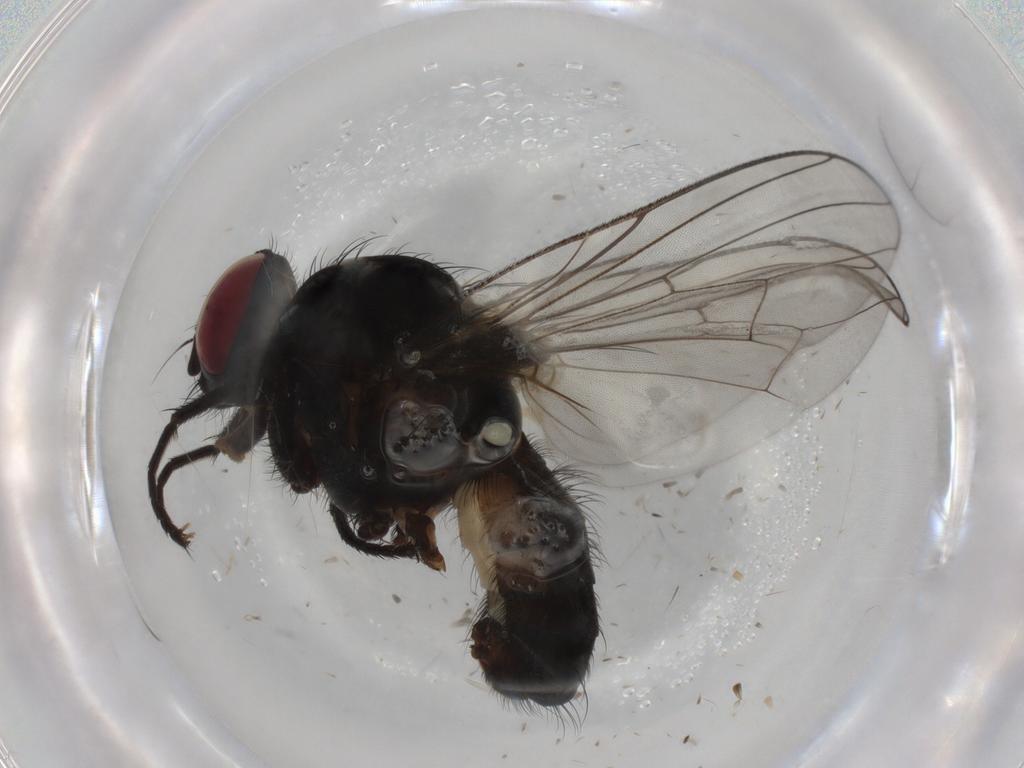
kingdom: Animalia
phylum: Arthropoda
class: Insecta
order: Diptera
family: Anthomyiidae
